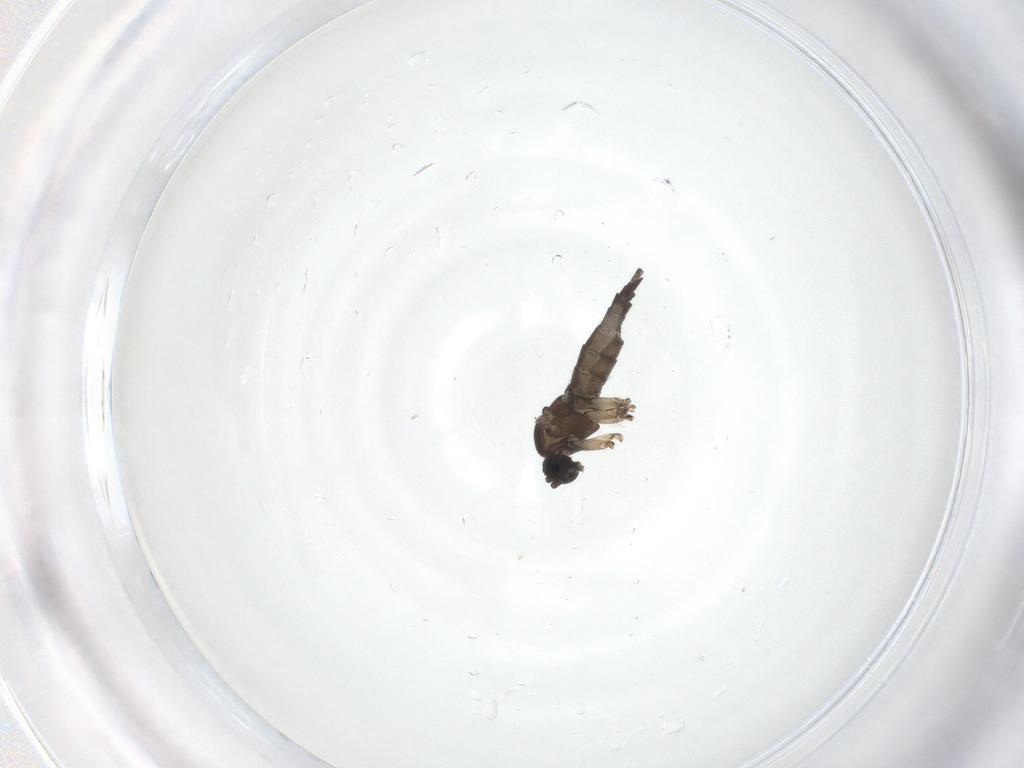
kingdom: Animalia
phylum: Arthropoda
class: Insecta
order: Diptera
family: Sciaridae
